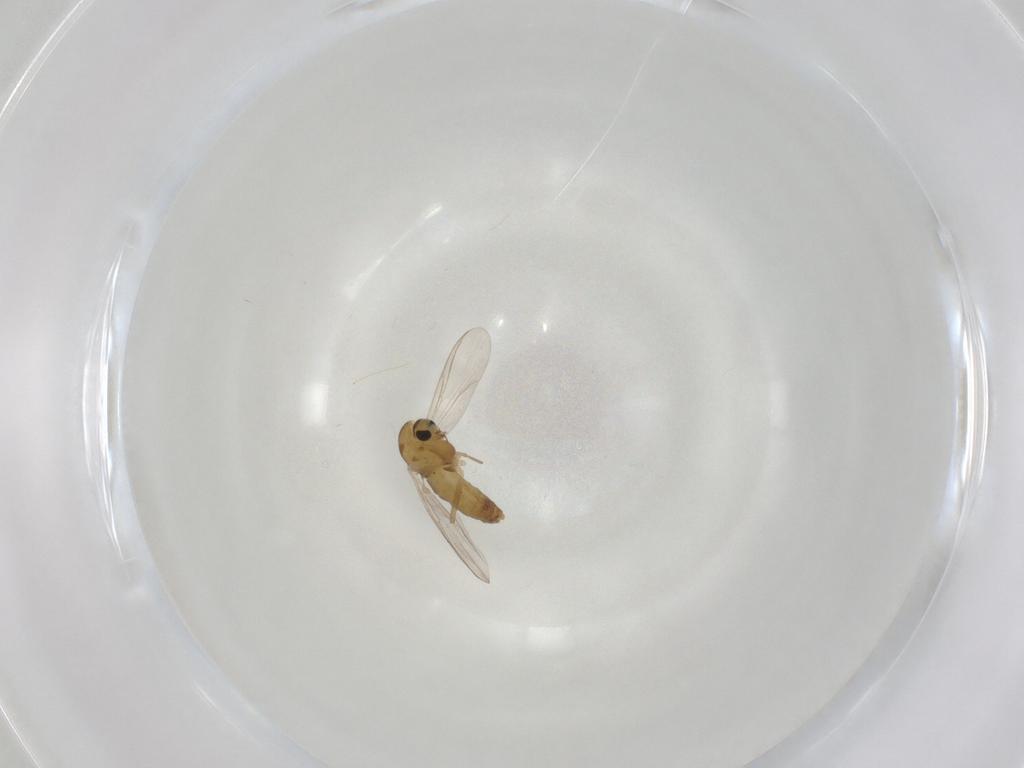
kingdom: Animalia
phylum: Arthropoda
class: Insecta
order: Diptera
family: Chironomidae
